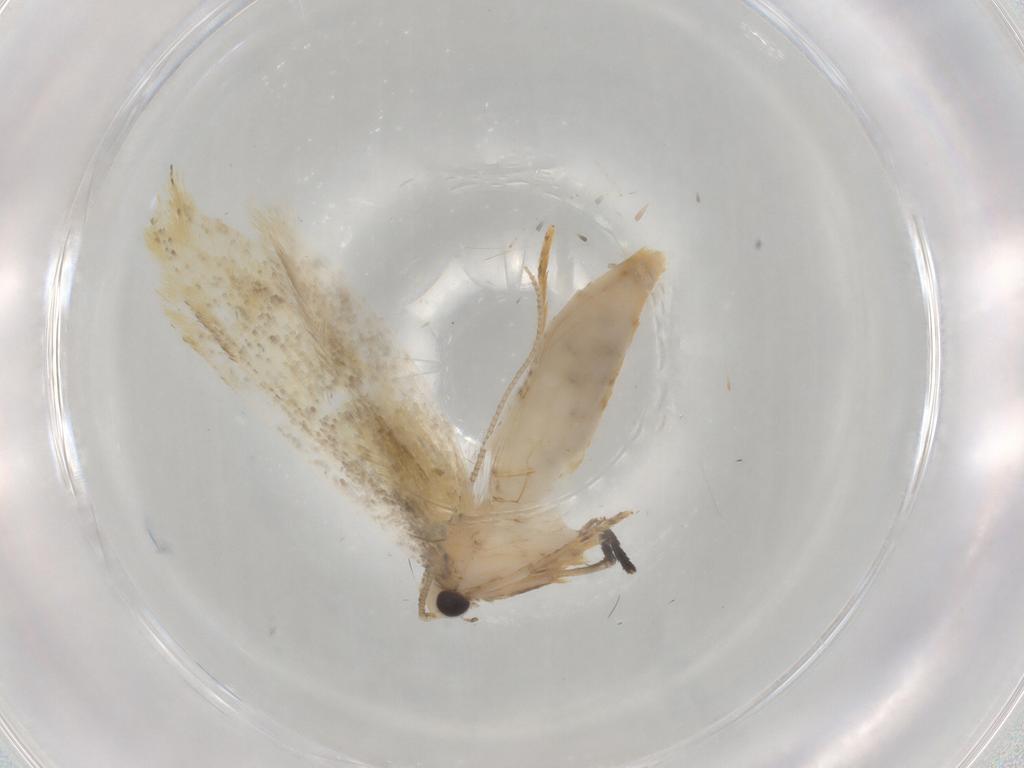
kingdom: Animalia
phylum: Arthropoda
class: Insecta
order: Lepidoptera
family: Tineidae
